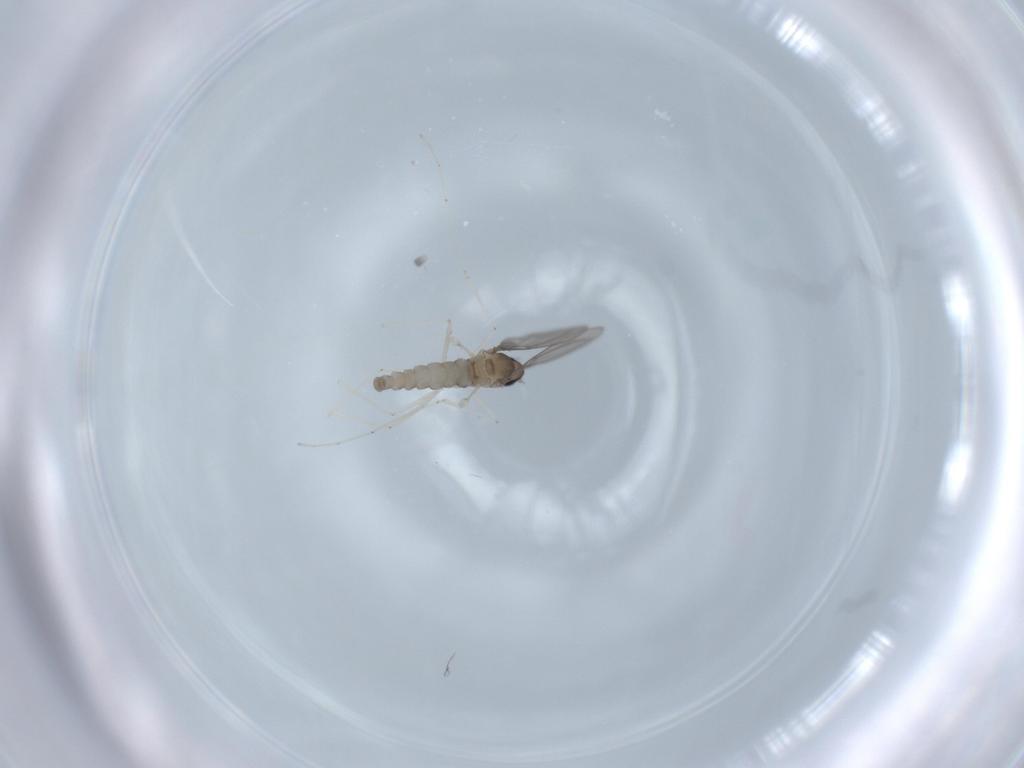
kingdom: Animalia
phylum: Arthropoda
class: Insecta
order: Diptera
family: Cecidomyiidae
